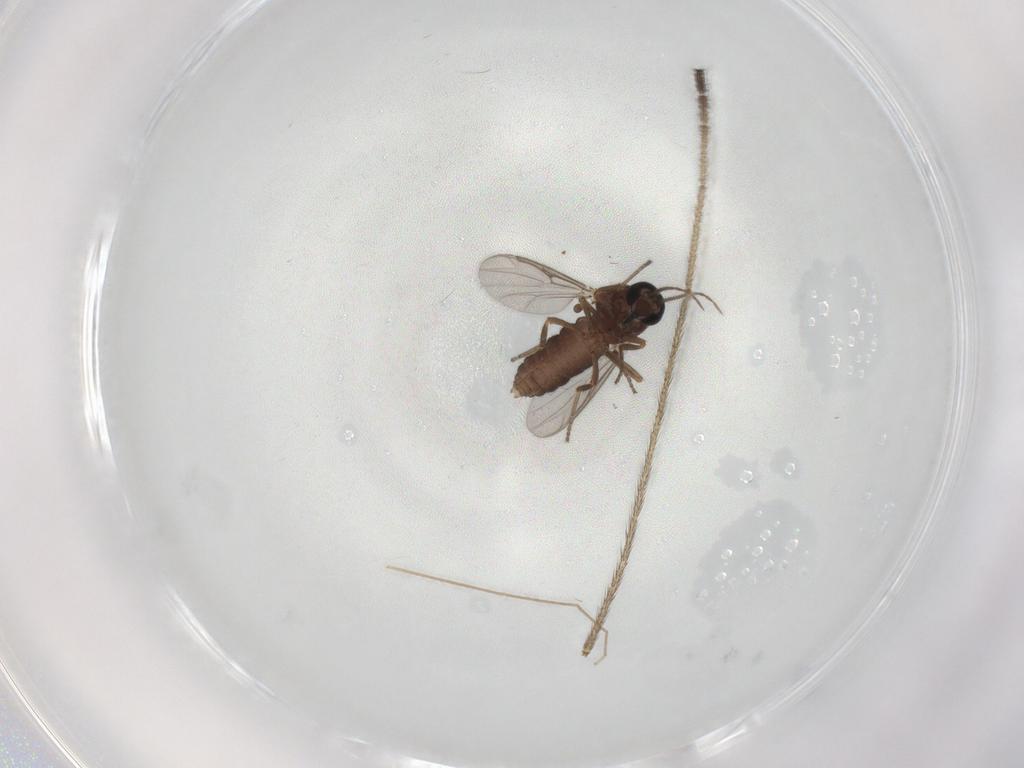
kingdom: Animalia
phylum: Arthropoda
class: Insecta
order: Diptera
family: Ceratopogonidae
